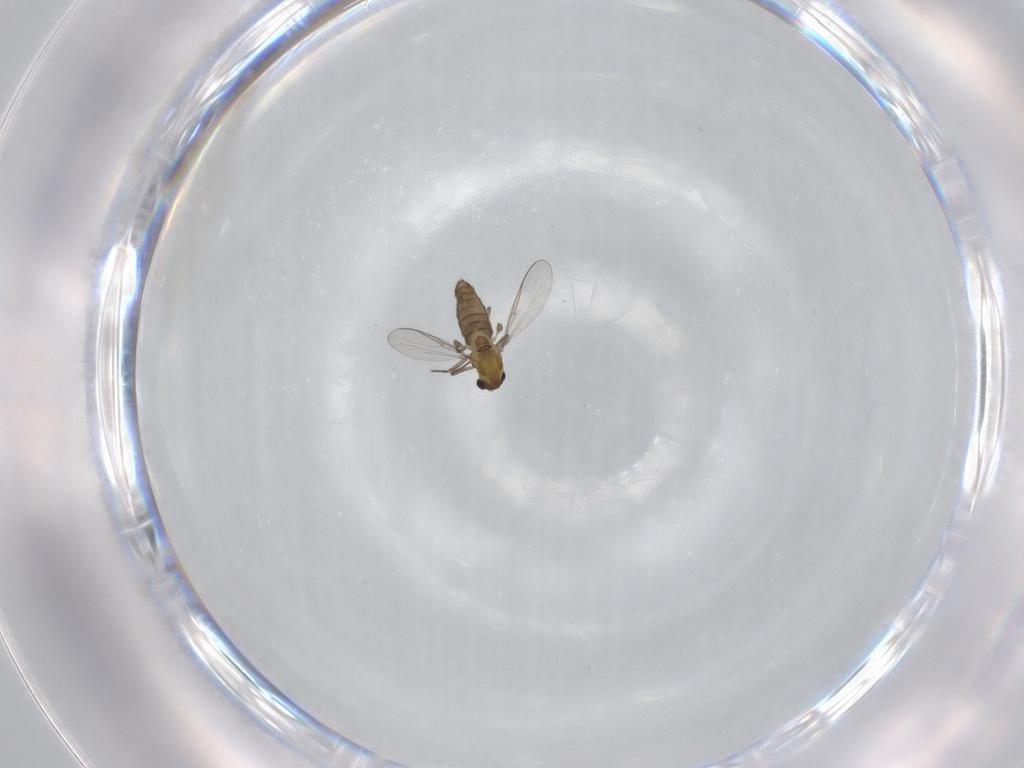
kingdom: Animalia
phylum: Arthropoda
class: Insecta
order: Diptera
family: Chironomidae
